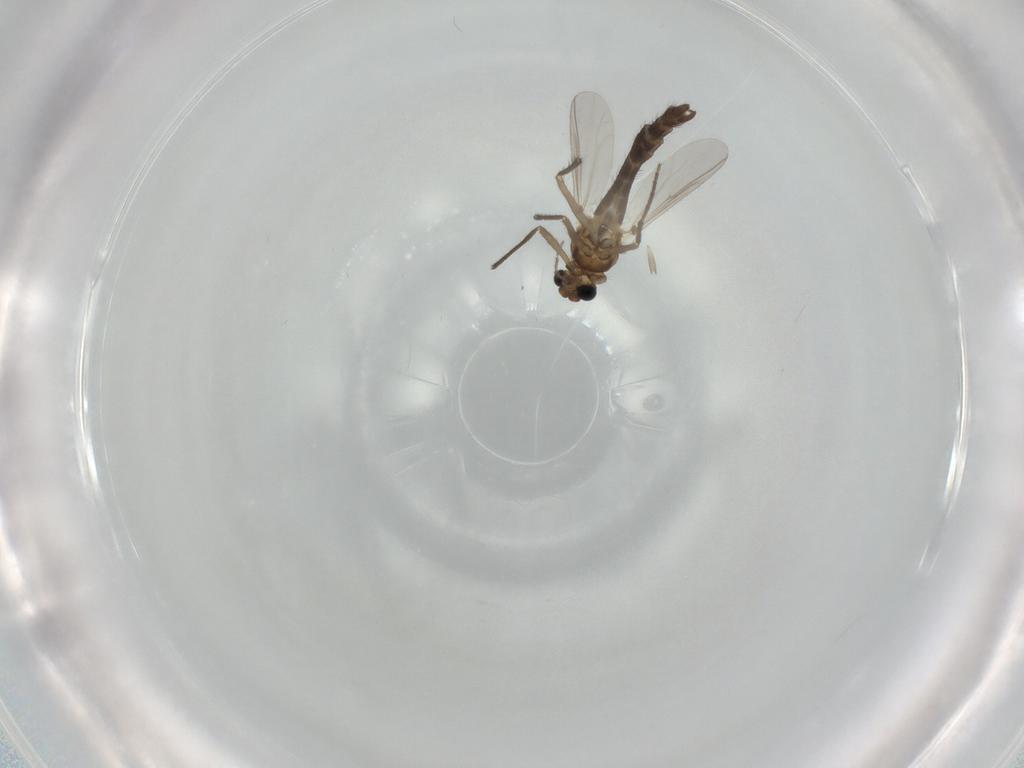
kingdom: Animalia
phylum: Arthropoda
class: Insecta
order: Diptera
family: Chironomidae
